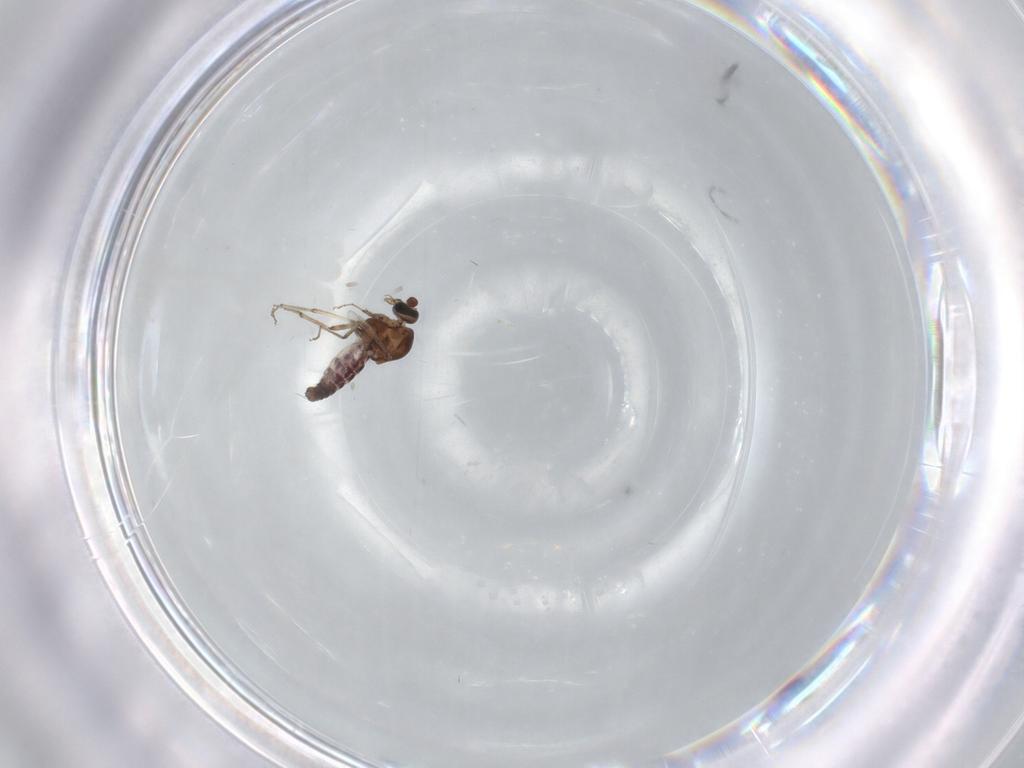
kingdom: Animalia
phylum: Arthropoda
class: Insecta
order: Diptera
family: Ceratopogonidae
